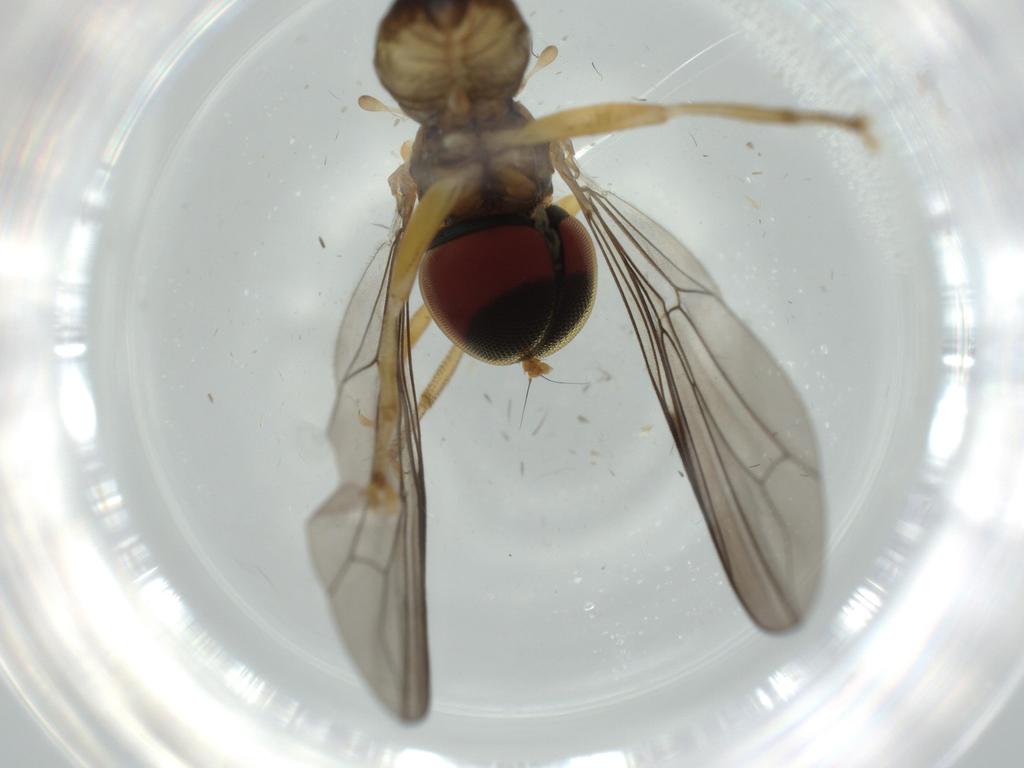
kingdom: Animalia
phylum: Arthropoda
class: Insecta
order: Diptera
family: Pipunculidae
